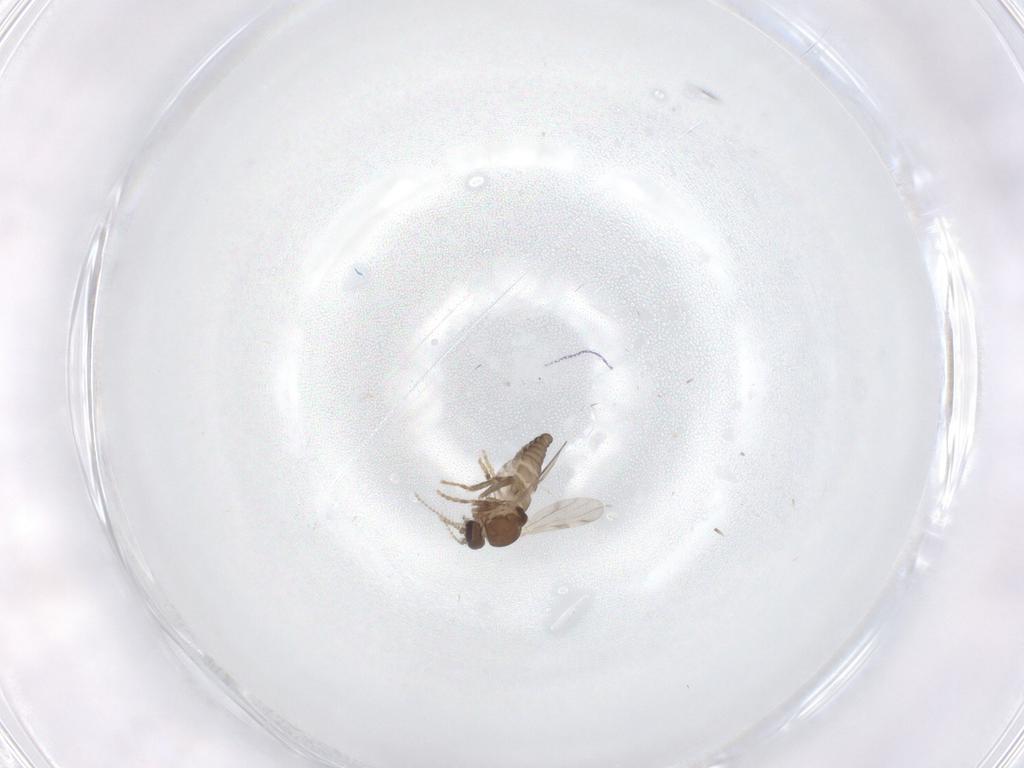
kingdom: Animalia
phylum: Arthropoda
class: Insecta
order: Diptera
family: Ceratopogonidae
